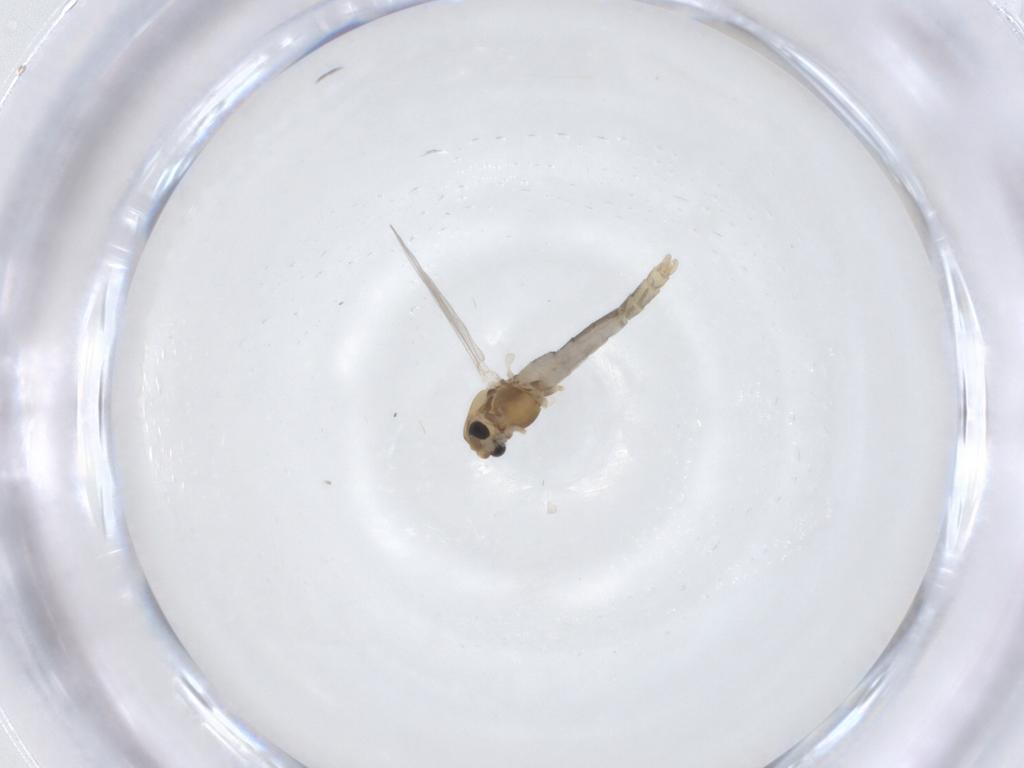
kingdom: Animalia
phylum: Arthropoda
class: Insecta
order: Diptera
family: Chironomidae
